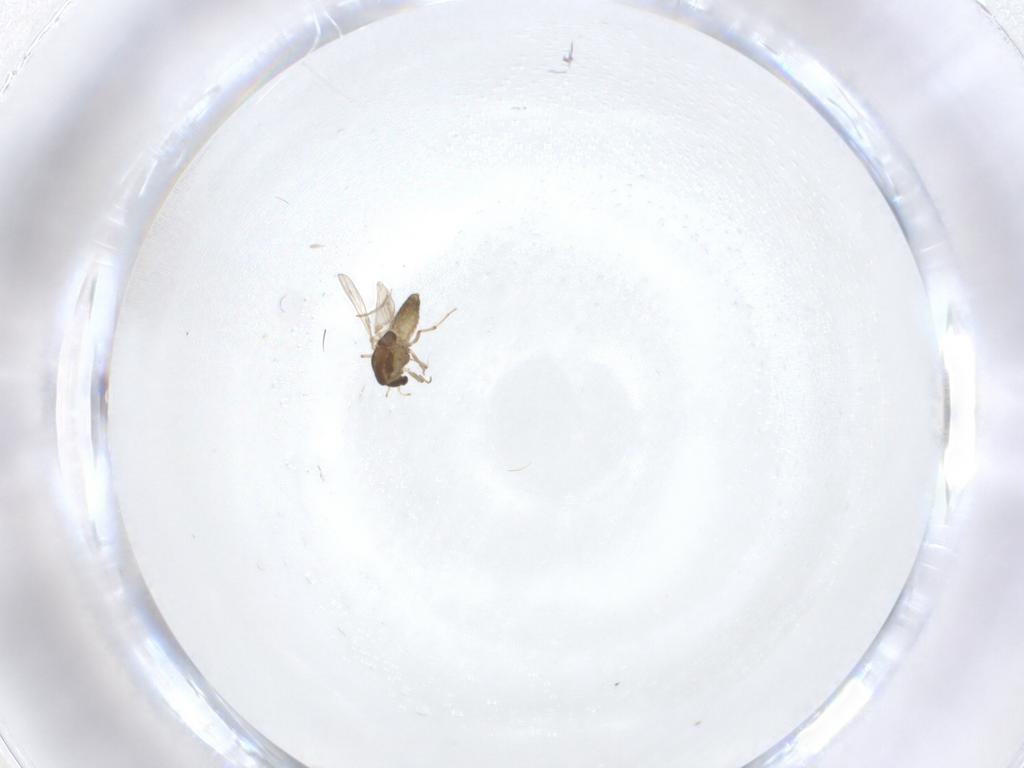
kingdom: Animalia
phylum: Arthropoda
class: Insecta
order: Diptera
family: Chironomidae
